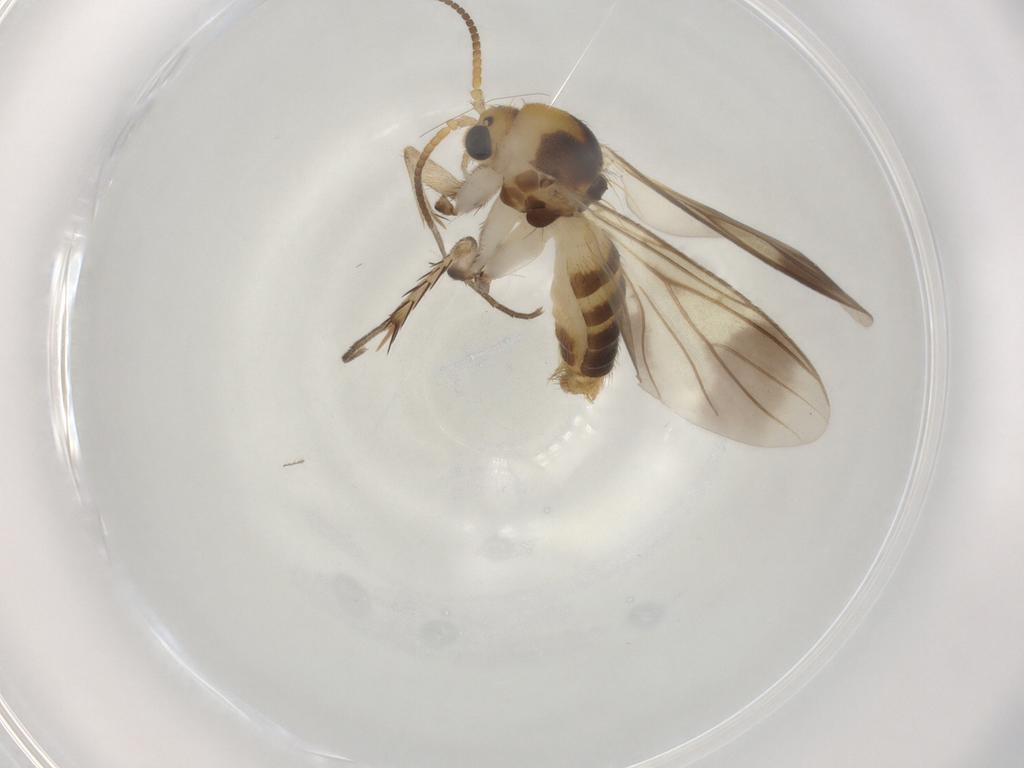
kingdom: Animalia
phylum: Arthropoda
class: Insecta
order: Diptera
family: Cecidomyiidae
